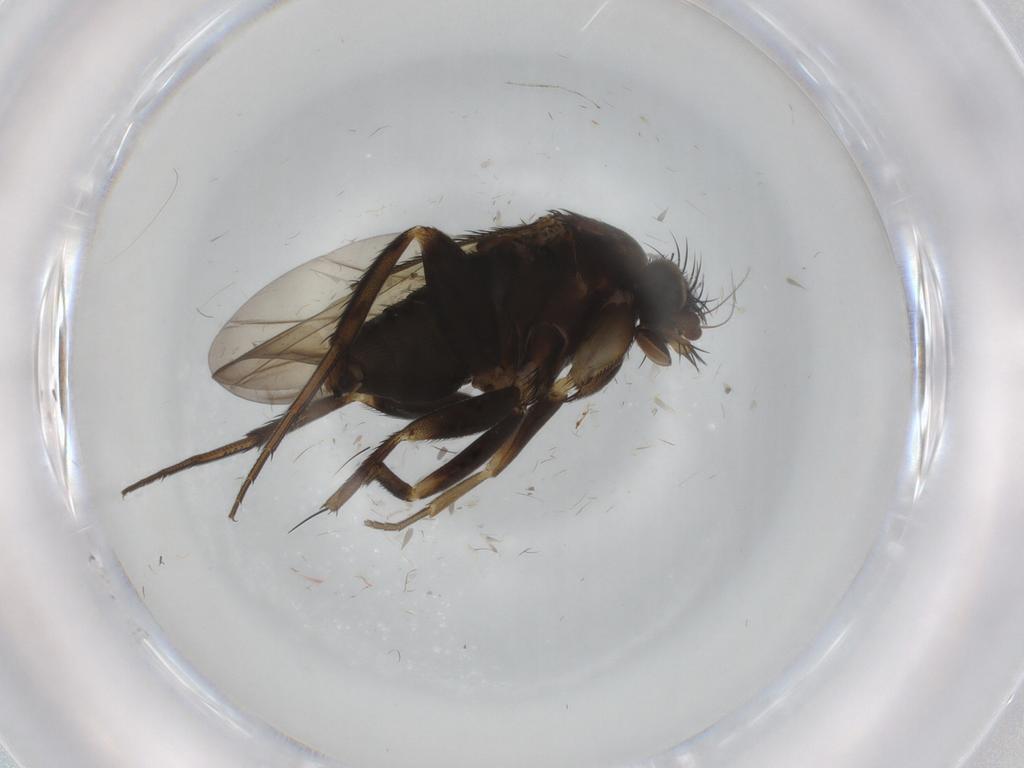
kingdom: Animalia
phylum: Arthropoda
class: Insecta
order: Diptera
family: Phoridae
